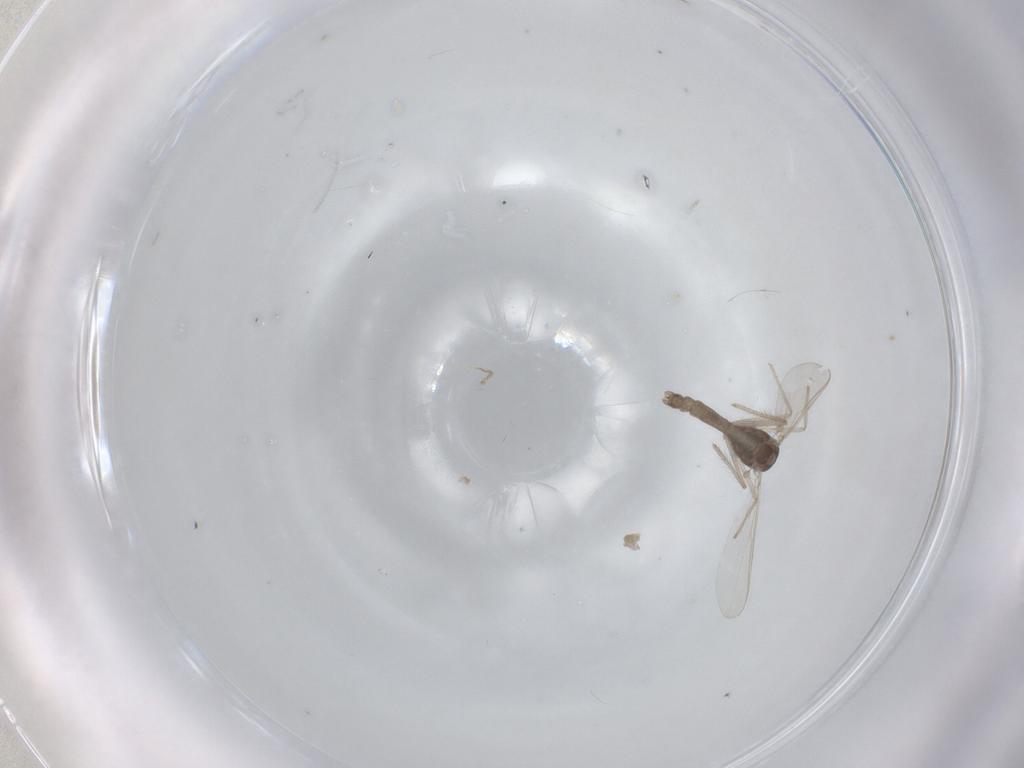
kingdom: Animalia
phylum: Arthropoda
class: Insecta
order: Diptera
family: Chironomidae
